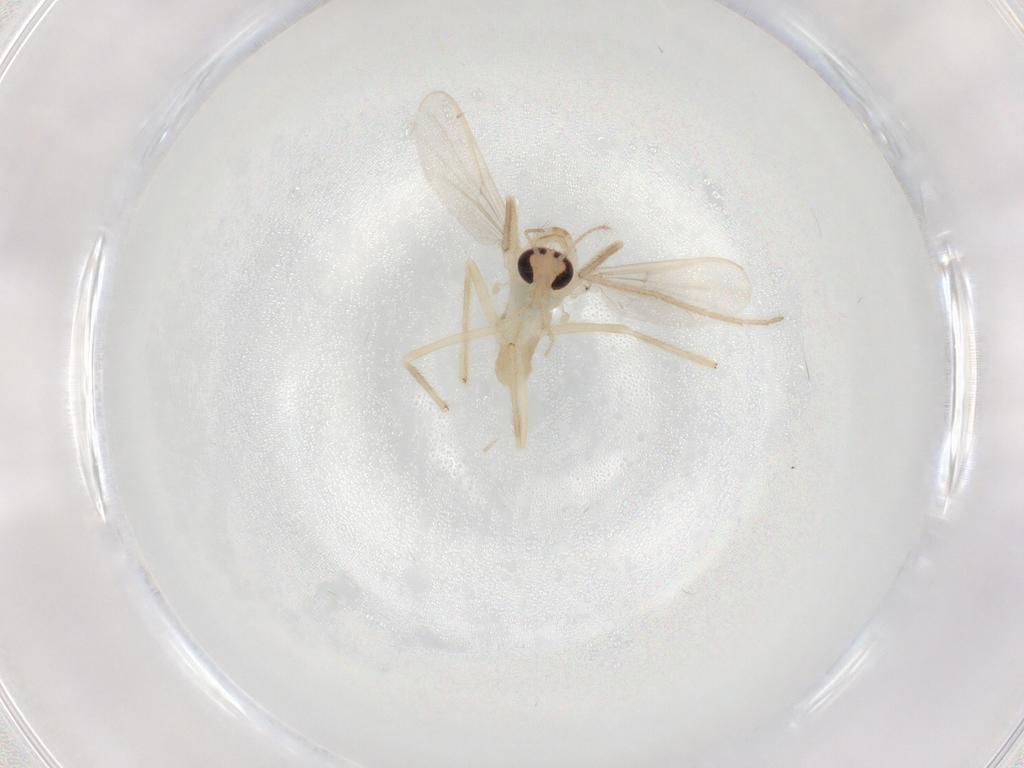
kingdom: Animalia
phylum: Arthropoda
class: Insecta
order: Diptera
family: Chironomidae
